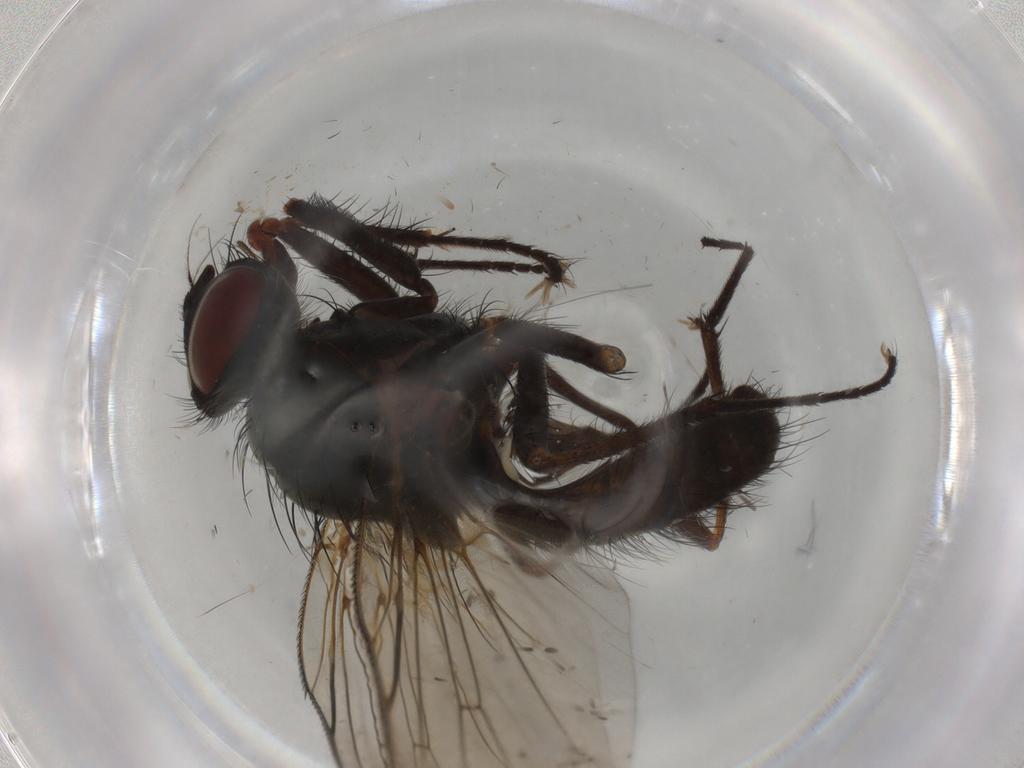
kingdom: Animalia
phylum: Arthropoda
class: Insecta
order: Diptera
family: Anthomyiidae
